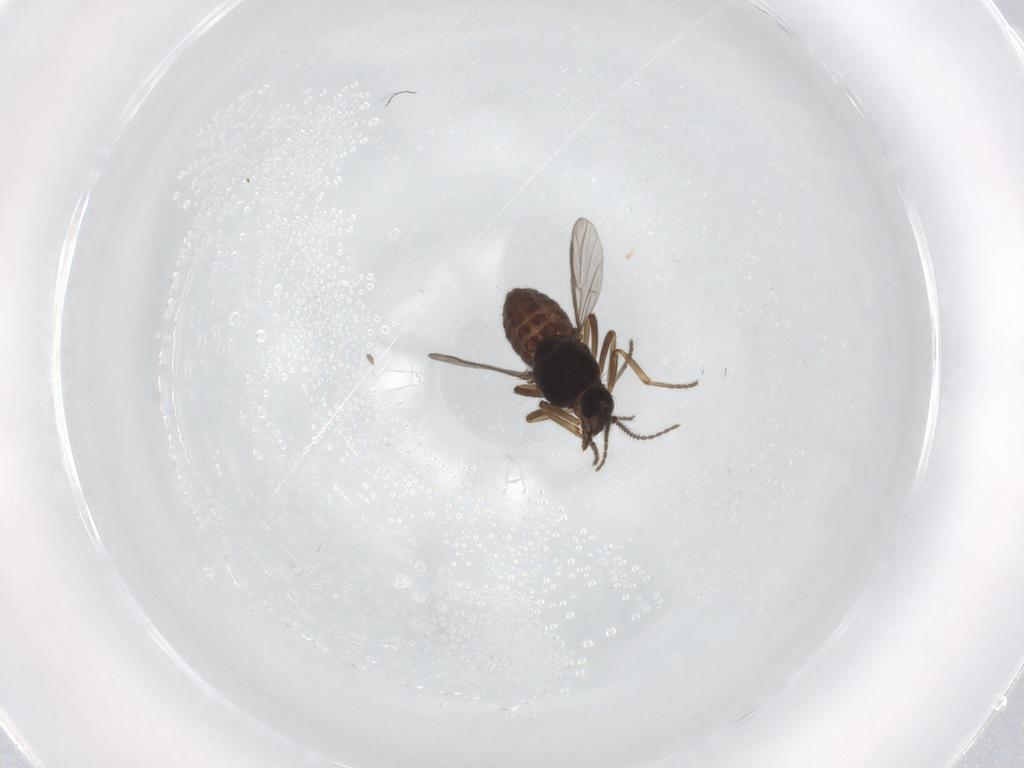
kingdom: Animalia
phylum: Arthropoda
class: Insecta
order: Diptera
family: Ceratopogonidae
